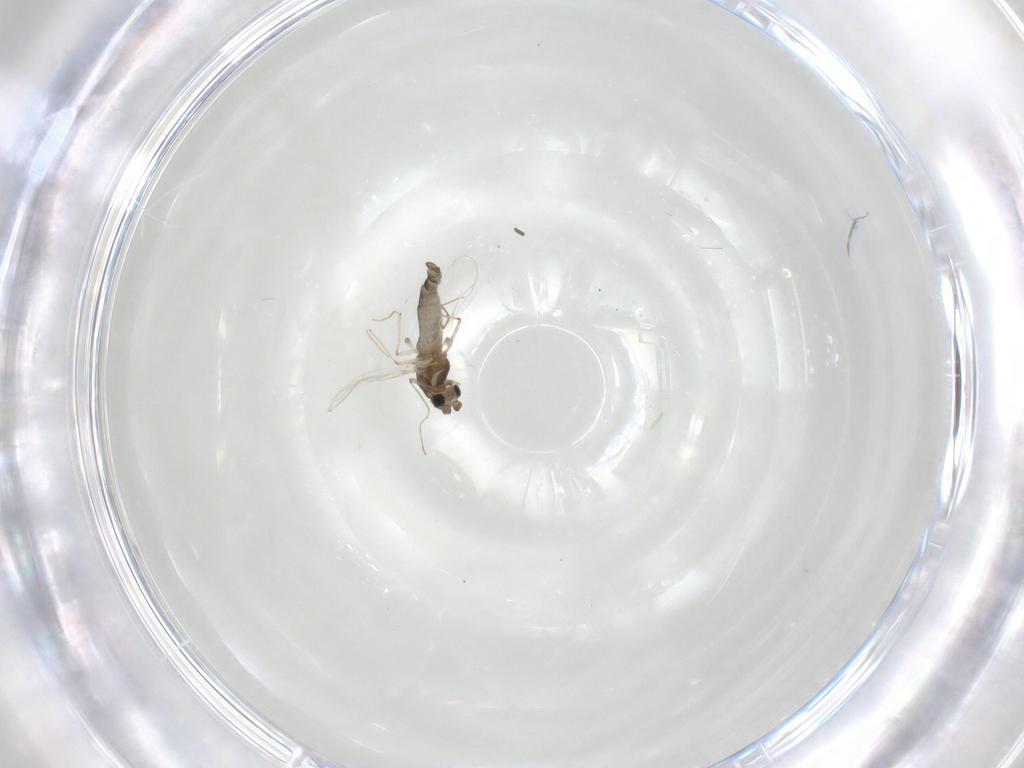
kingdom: Animalia
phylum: Arthropoda
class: Insecta
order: Diptera
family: Chironomidae
